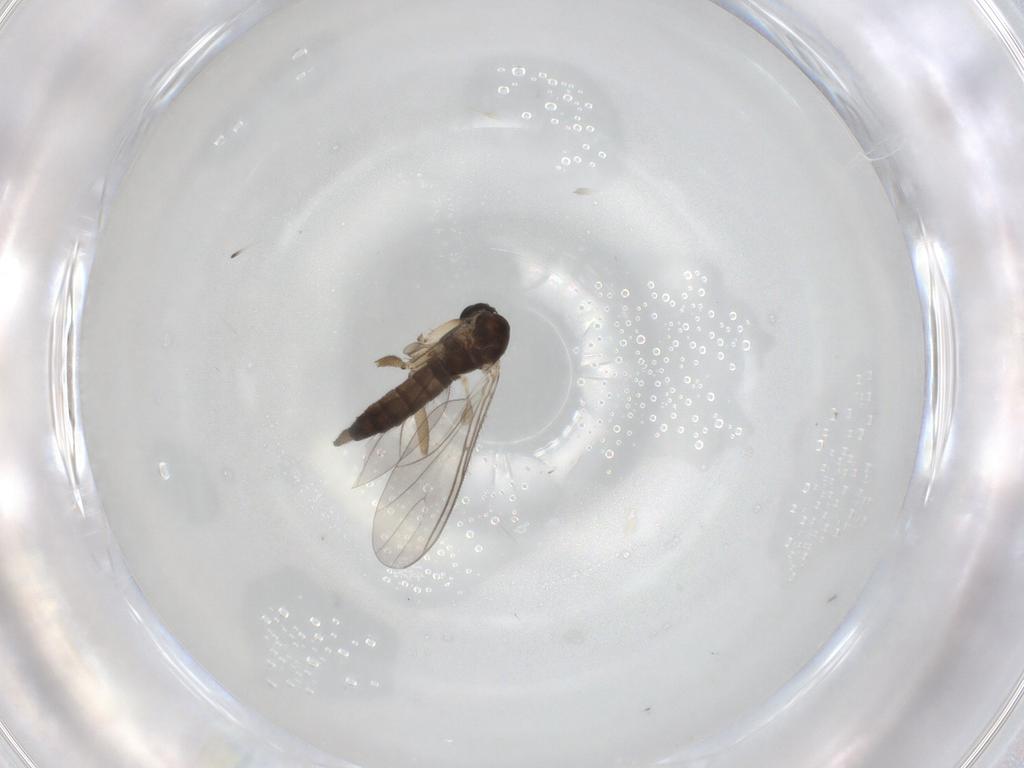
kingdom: Animalia
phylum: Arthropoda
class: Insecta
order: Diptera
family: Sciaridae
